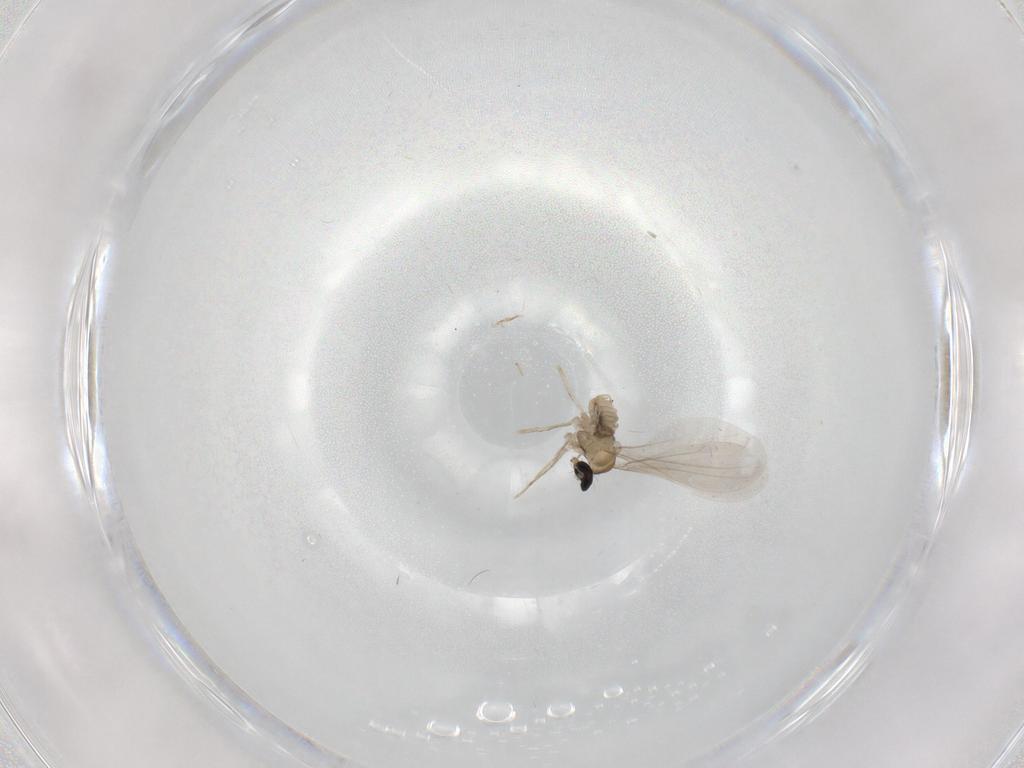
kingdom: Animalia
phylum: Arthropoda
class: Insecta
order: Diptera
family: Cecidomyiidae
